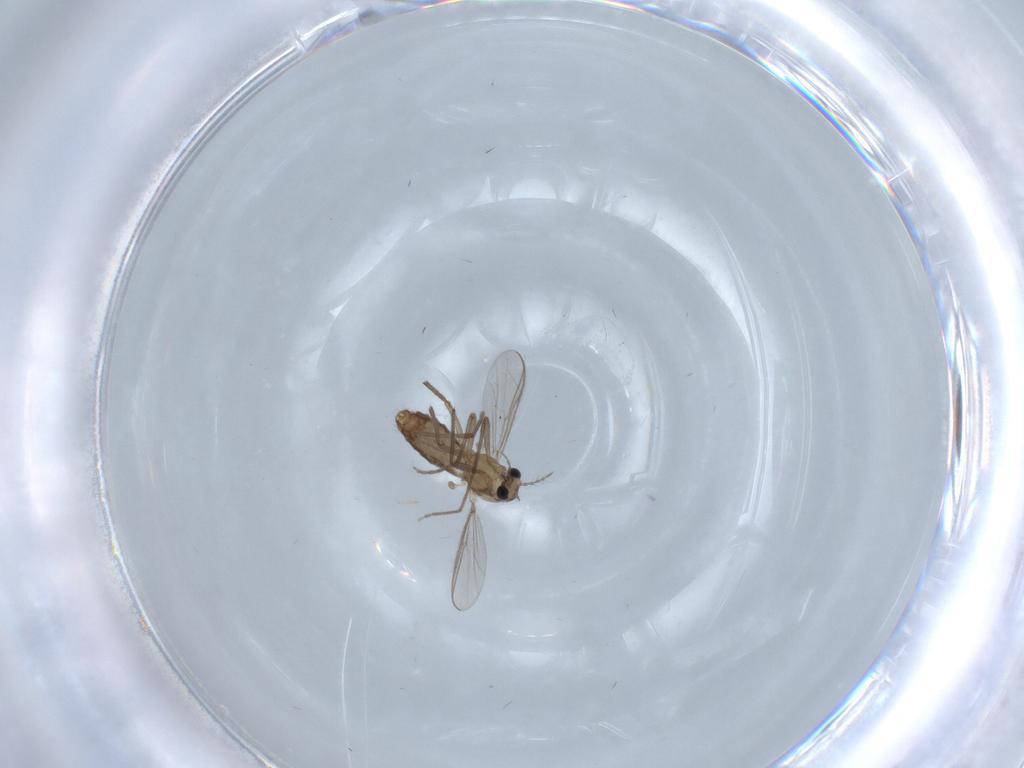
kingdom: Animalia
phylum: Arthropoda
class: Insecta
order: Diptera
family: Chironomidae
